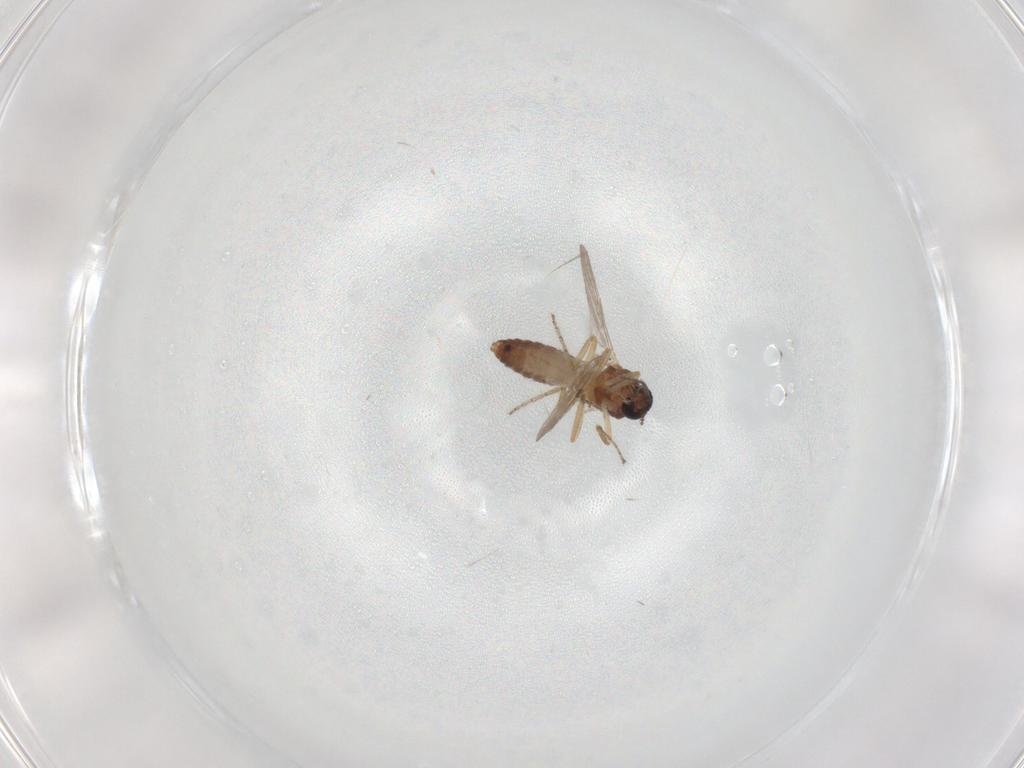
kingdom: Animalia
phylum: Arthropoda
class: Insecta
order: Diptera
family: Ceratopogonidae
